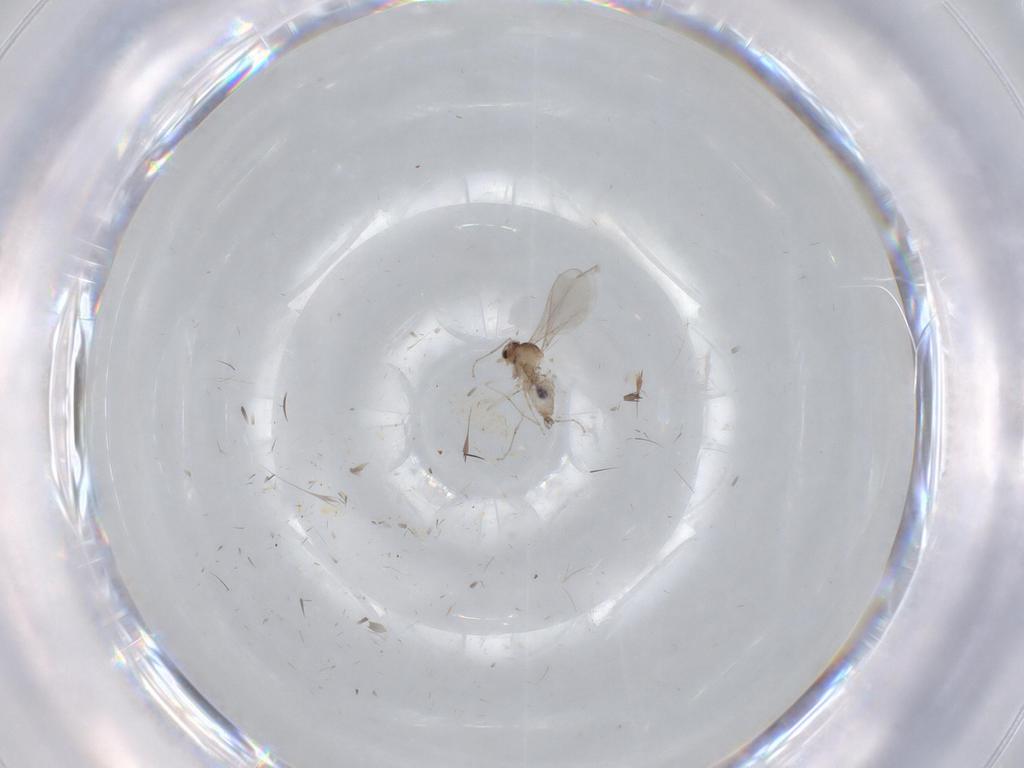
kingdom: Animalia
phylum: Arthropoda
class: Insecta
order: Diptera
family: Cecidomyiidae
